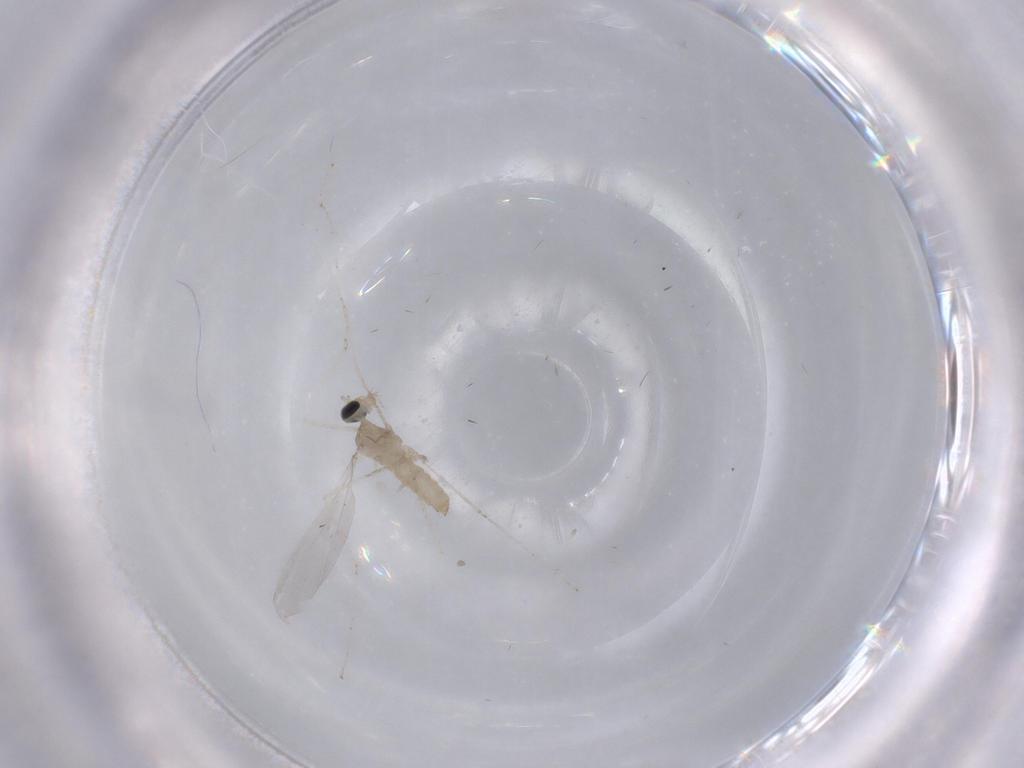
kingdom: Animalia
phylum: Arthropoda
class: Insecta
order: Diptera
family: Cecidomyiidae
